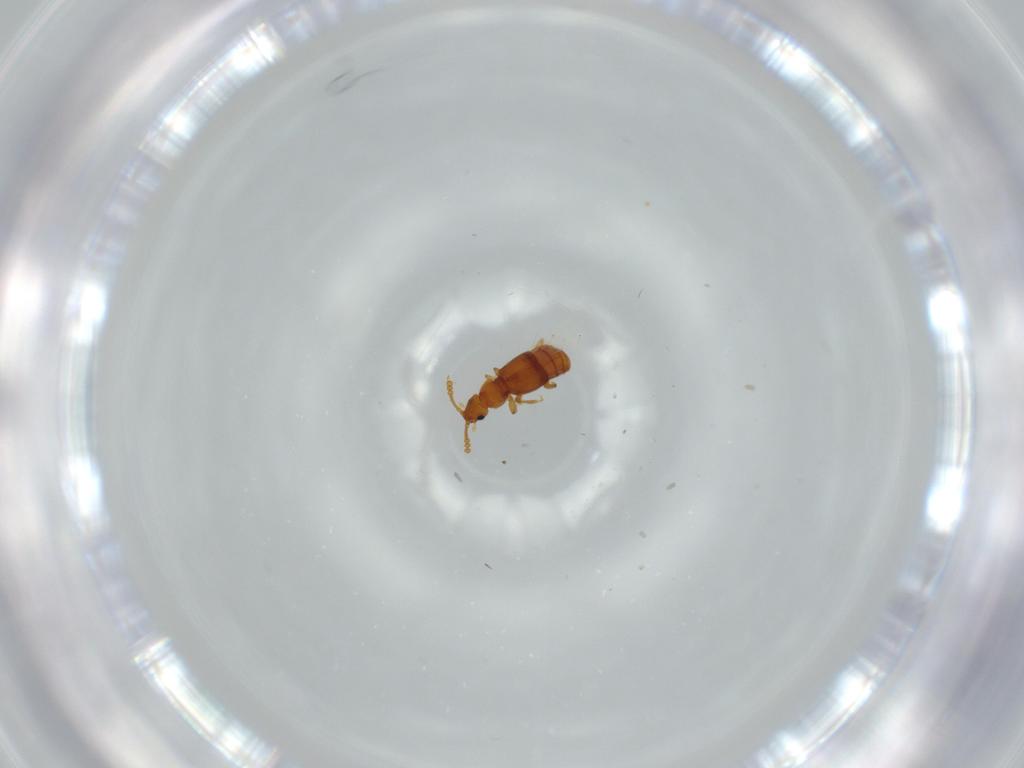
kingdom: Animalia
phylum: Arthropoda
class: Insecta
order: Coleoptera
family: Staphylinidae
